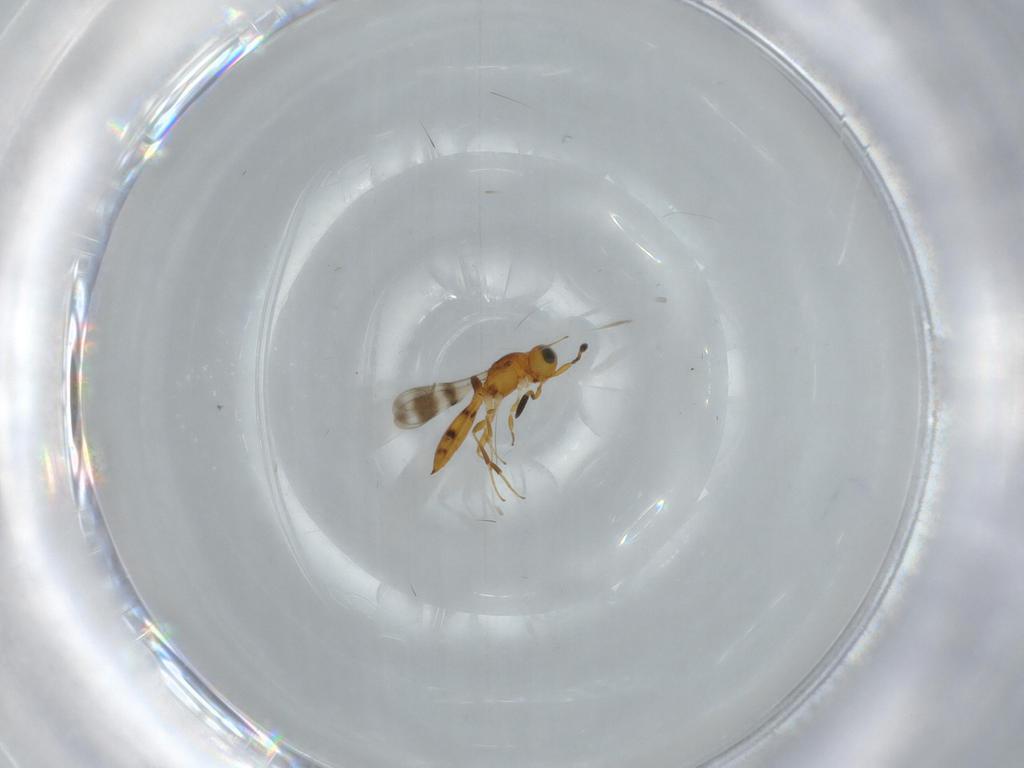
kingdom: Animalia
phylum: Arthropoda
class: Insecta
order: Hymenoptera
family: Scelionidae
